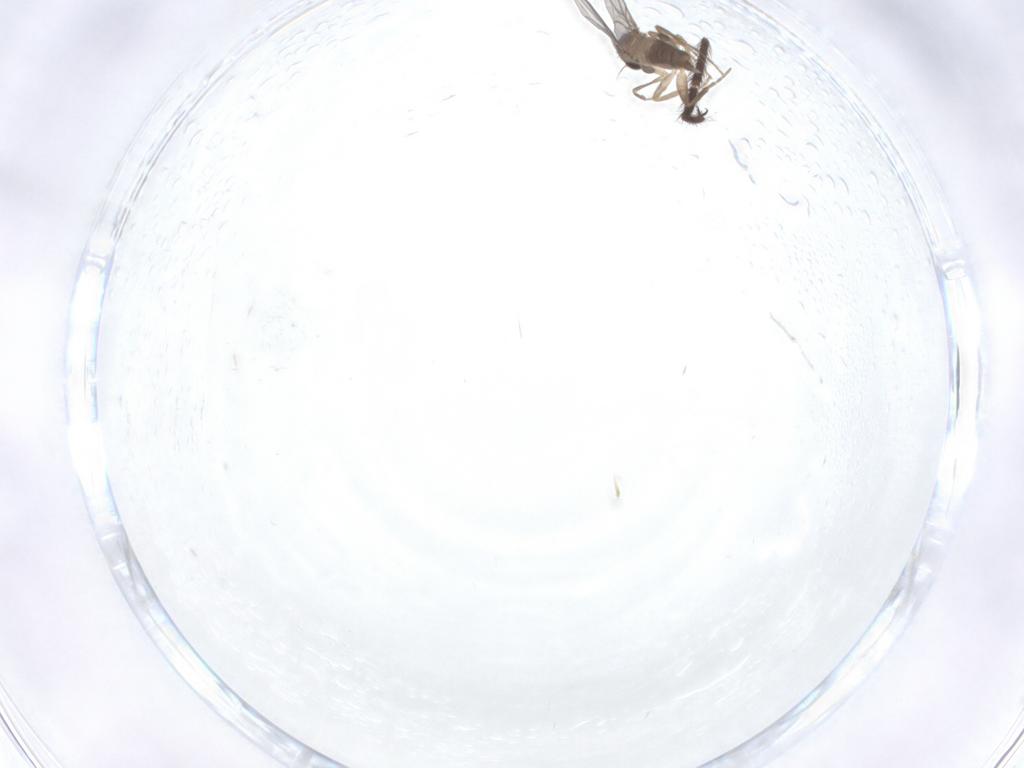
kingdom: Animalia
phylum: Arthropoda
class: Insecta
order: Diptera
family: Limoniidae
